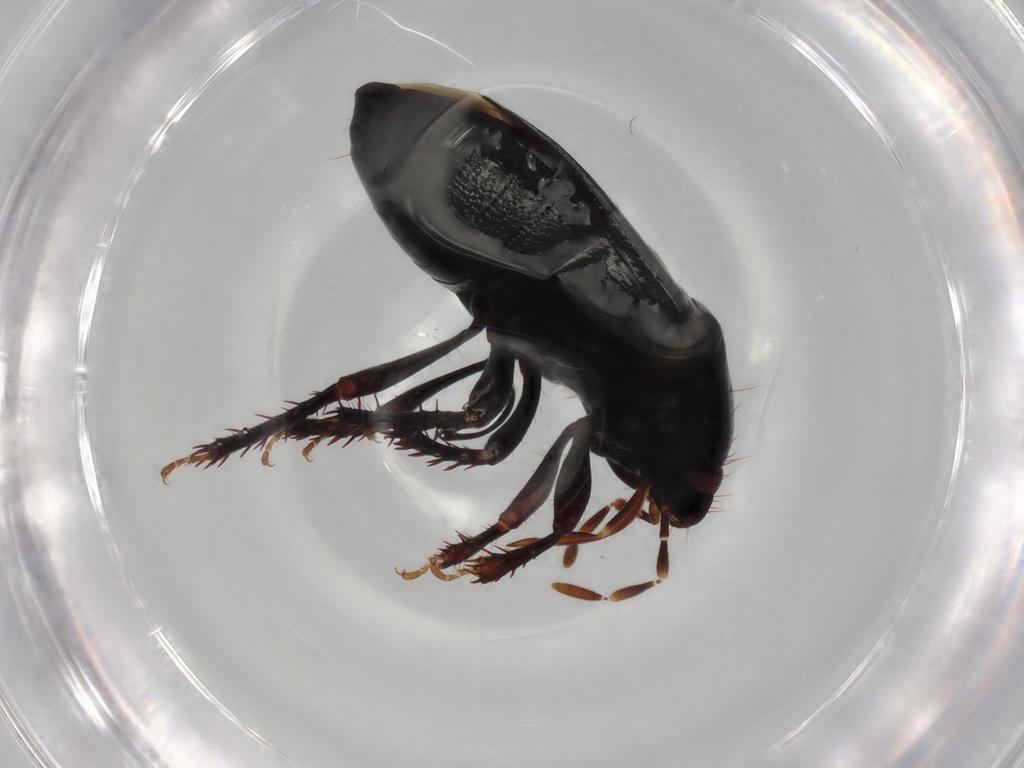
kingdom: Animalia
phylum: Arthropoda
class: Insecta
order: Hemiptera
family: Cydnidae
